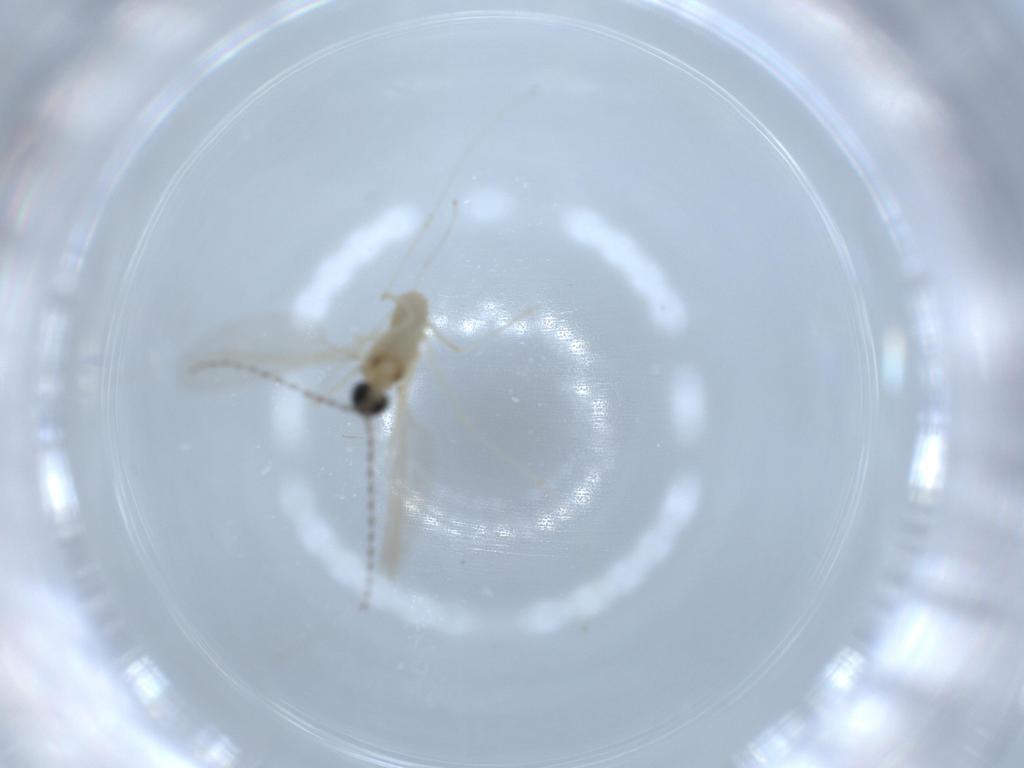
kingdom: Animalia
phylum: Arthropoda
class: Insecta
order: Diptera
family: Cecidomyiidae
